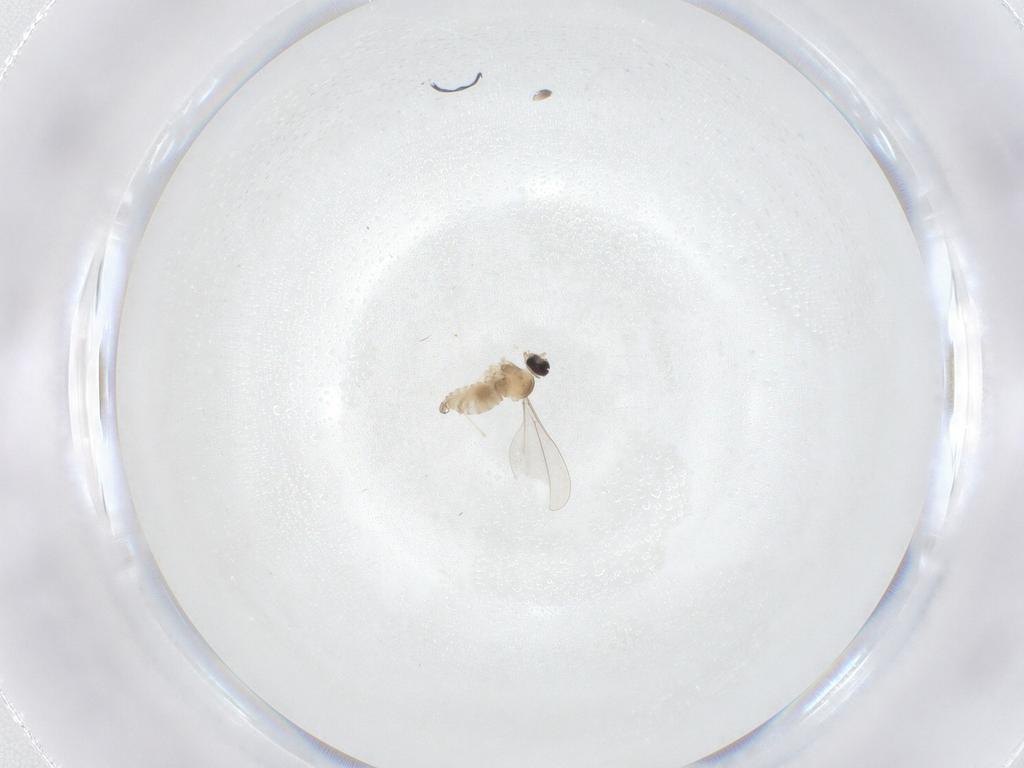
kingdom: Animalia
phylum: Arthropoda
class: Insecta
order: Diptera
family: Cecidomyiidae
